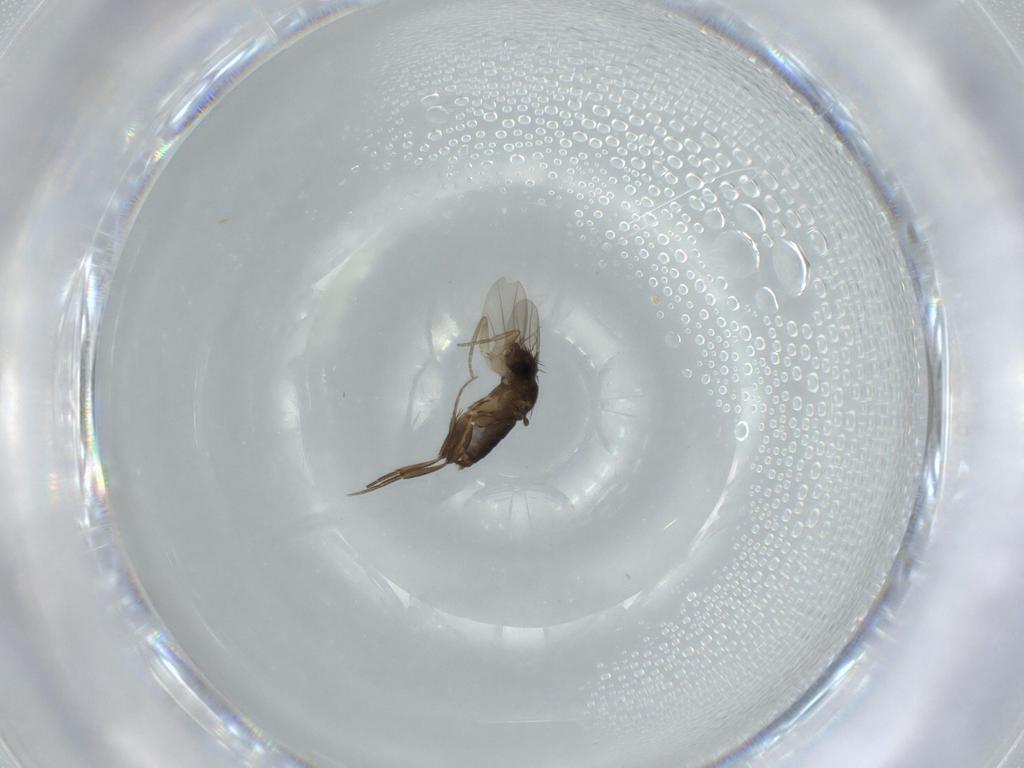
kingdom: Animalia
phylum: Arthropoda
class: Insecta
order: Diptera
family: Phoridae
